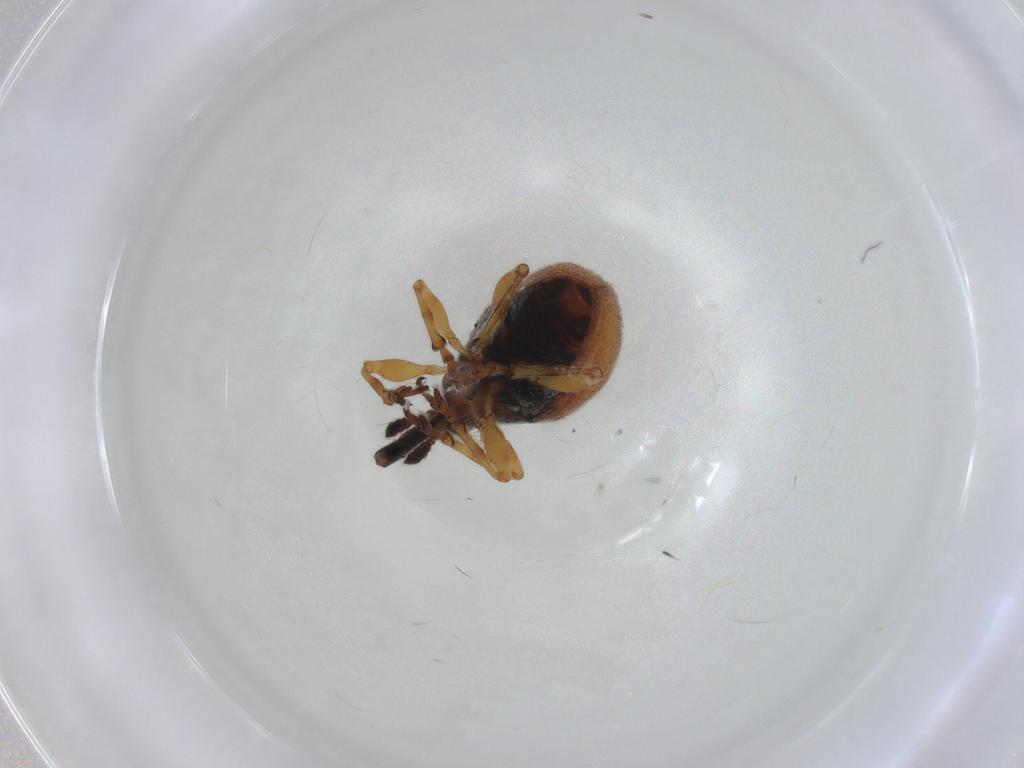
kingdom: Animalia
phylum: Arthropoda
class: Insecta
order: Coleoptera
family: Brentidae
